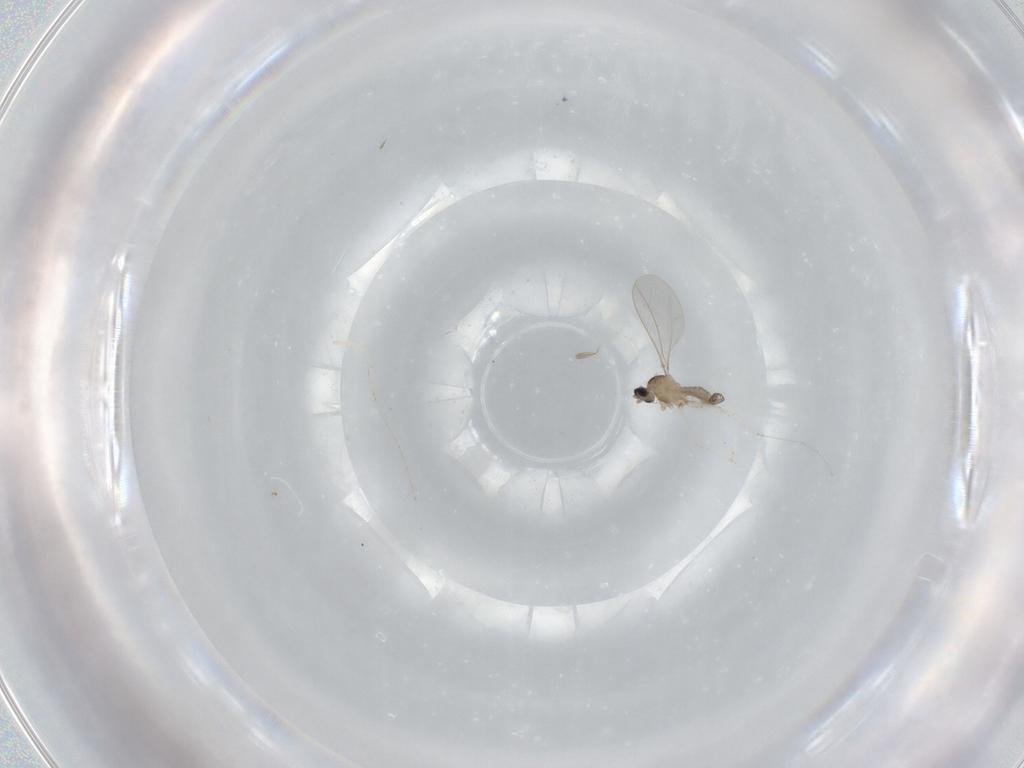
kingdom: Animalia
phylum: Arthropoda
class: Insecta
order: Diptera
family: Cecidomyiidae
